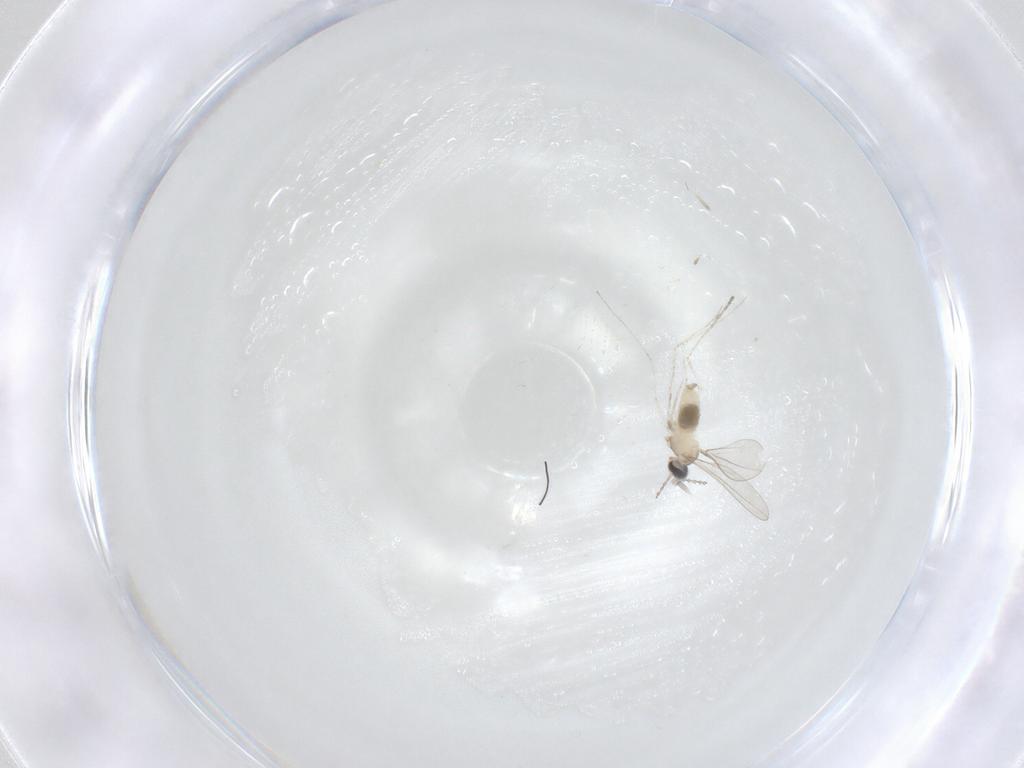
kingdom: Animalia
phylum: Arthropoda
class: Insecta
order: Diptera
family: Cecidomyiidae
